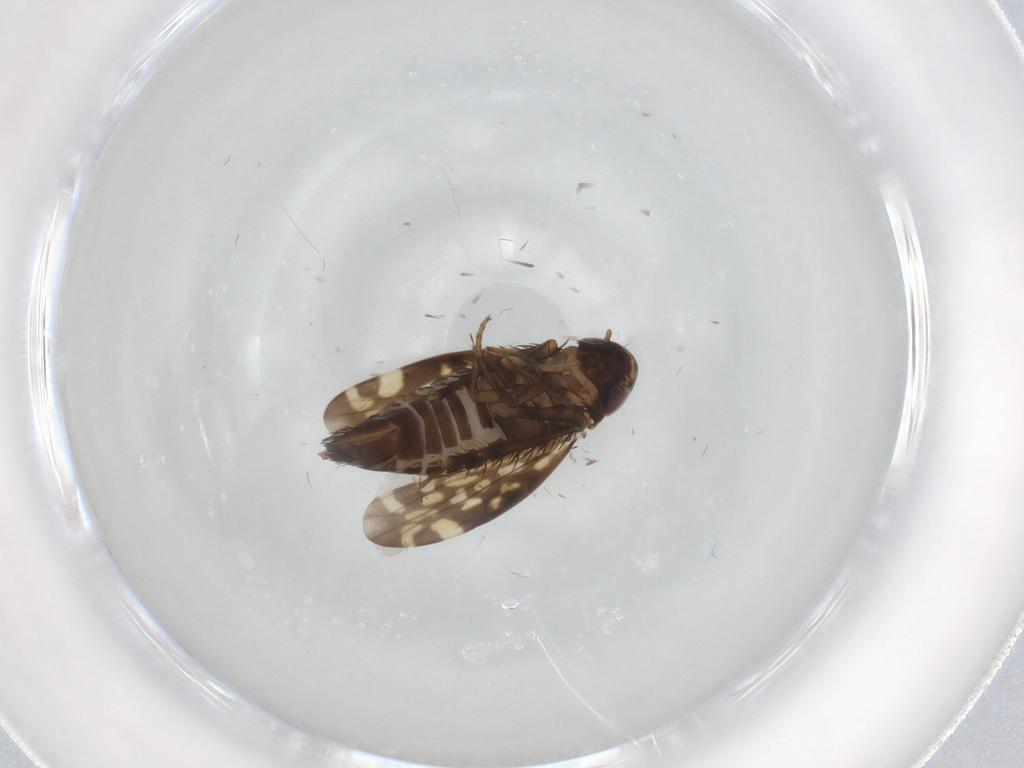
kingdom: Animalia
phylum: Arthropoda
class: Insecta
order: Hemiptera
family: Cicadellidae
